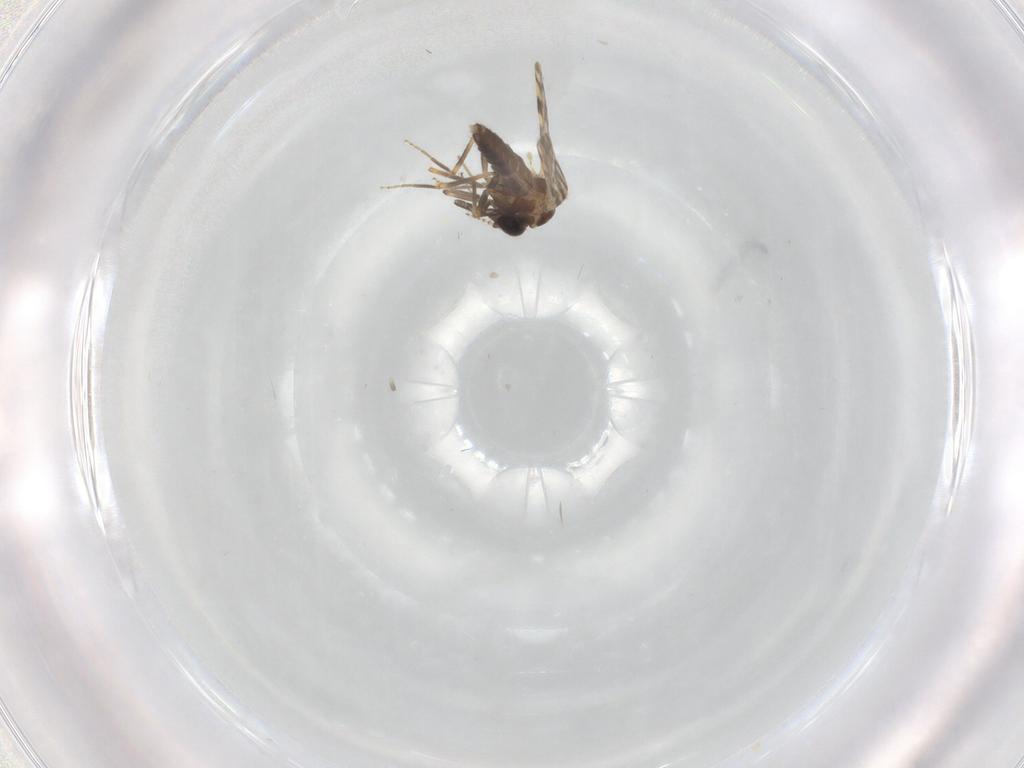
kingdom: Animalia
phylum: Arthropoda
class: Insecta
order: Diptera
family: Ceratopogonidae
